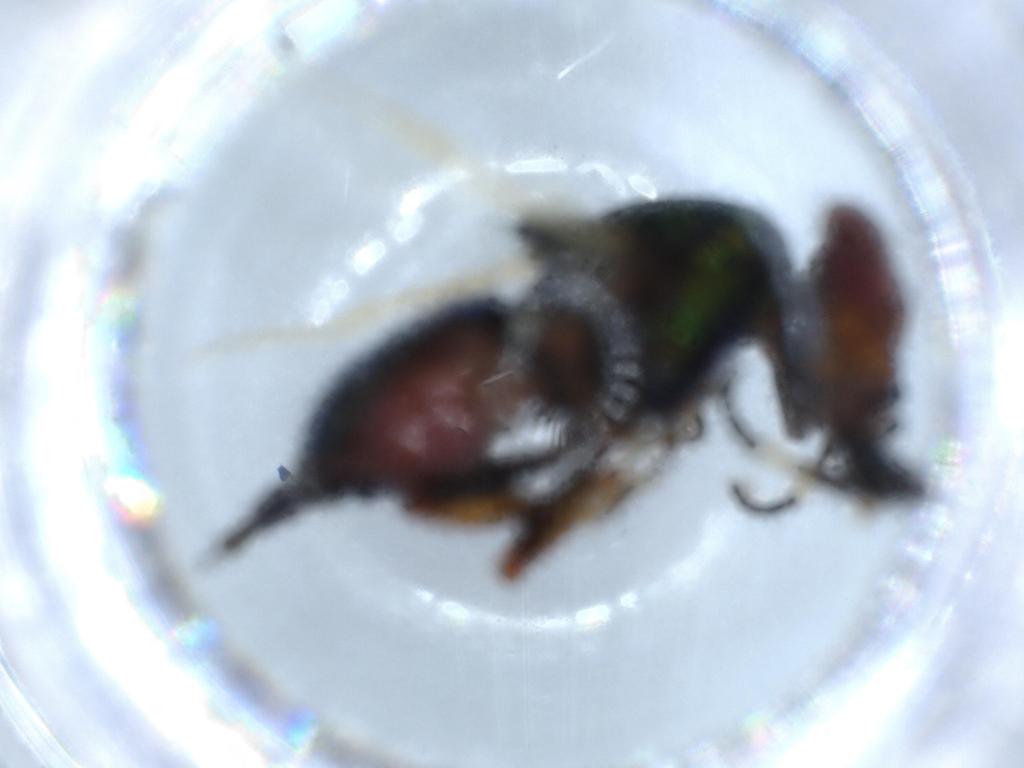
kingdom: Animalia
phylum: Arthropoda
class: Insecta
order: Diptera
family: Ulidiidae
